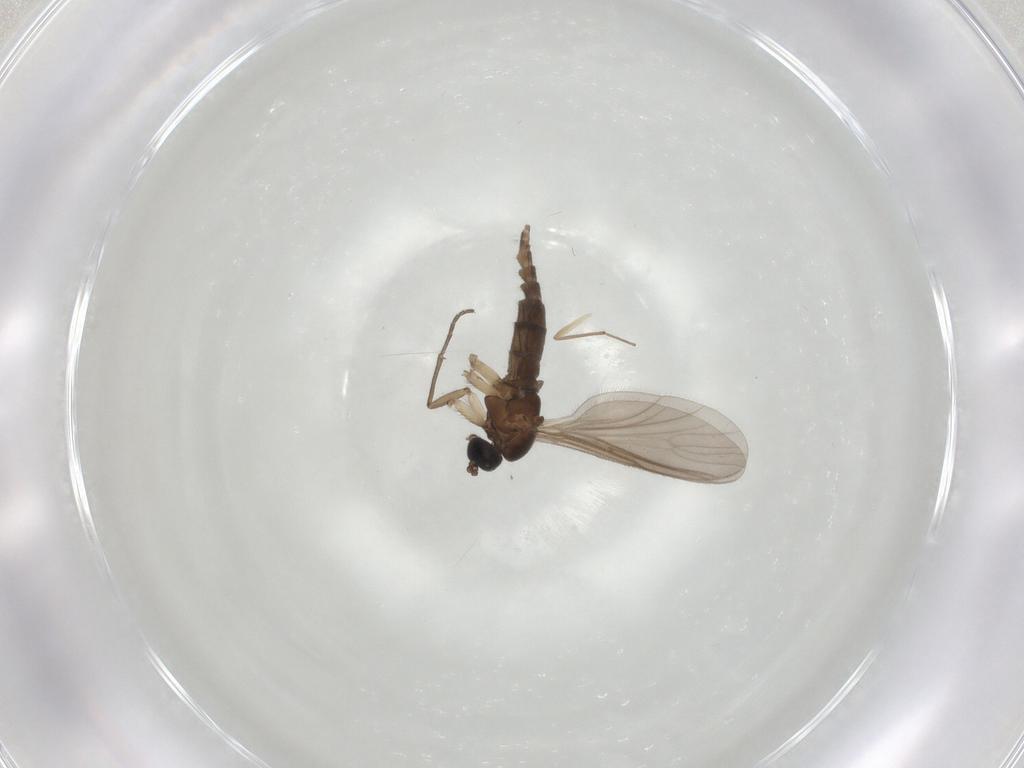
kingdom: Animalia
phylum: Arthropoda
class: Insecta
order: Diptera
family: Sciaridae
